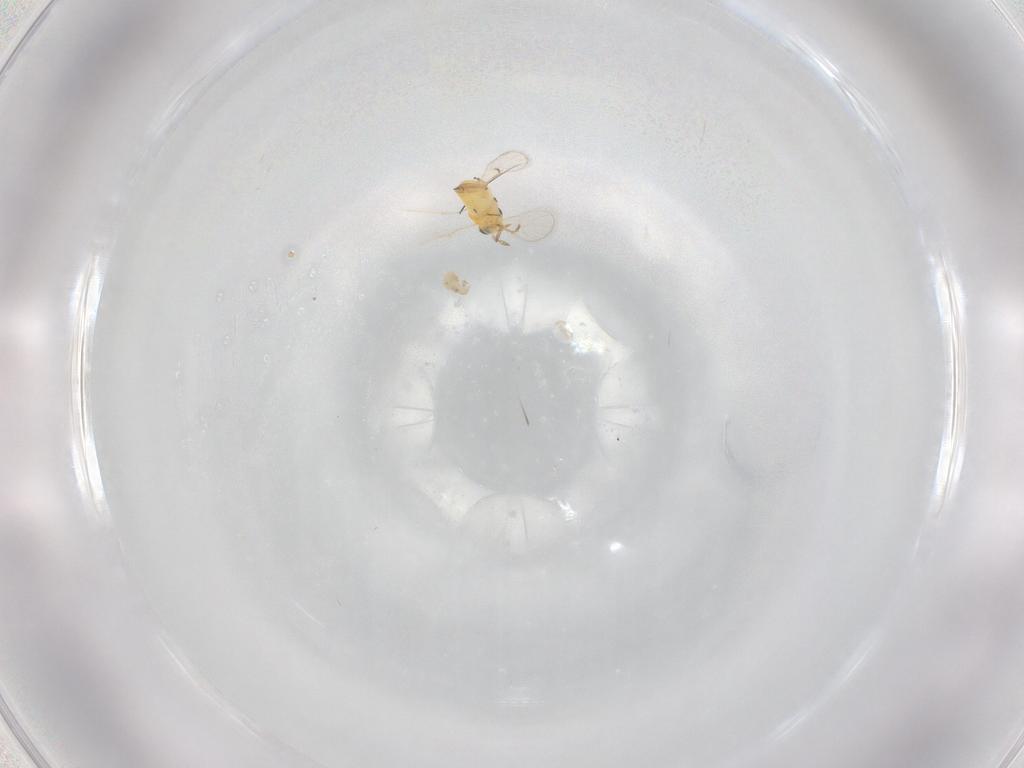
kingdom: Animalia
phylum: Arthropoda
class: Insecta
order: Hymenoptera
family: Trichogrammatidae
